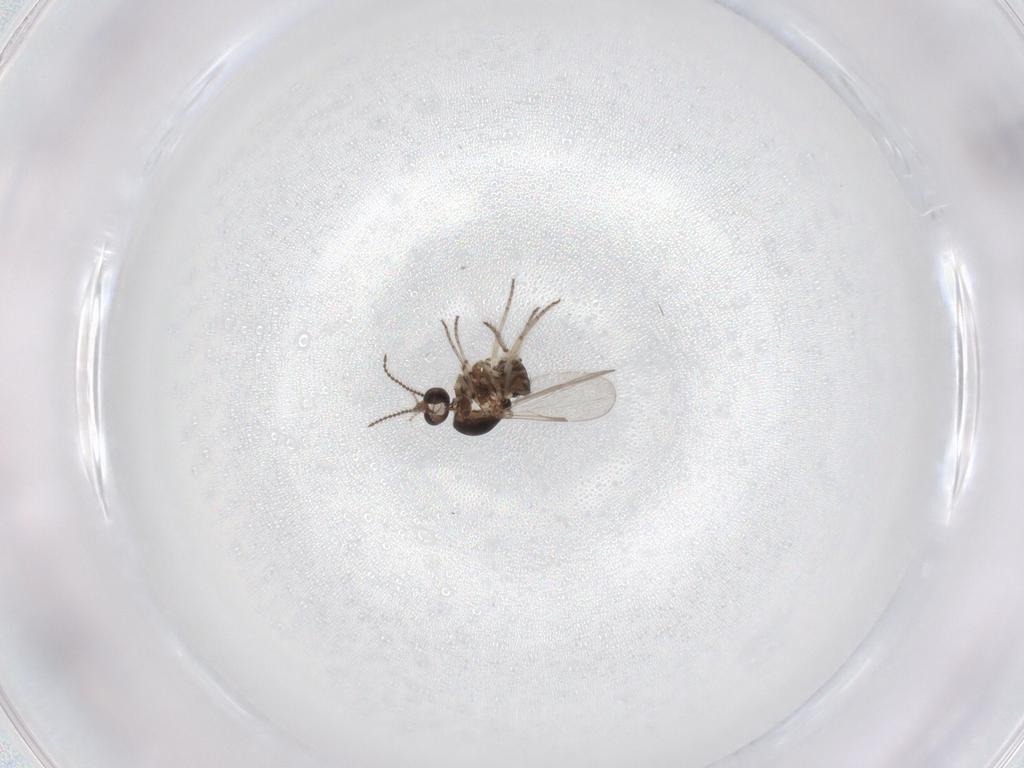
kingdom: Animalia
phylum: Arthropoda
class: Insecta
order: Diptera
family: Ceratopogonidae
